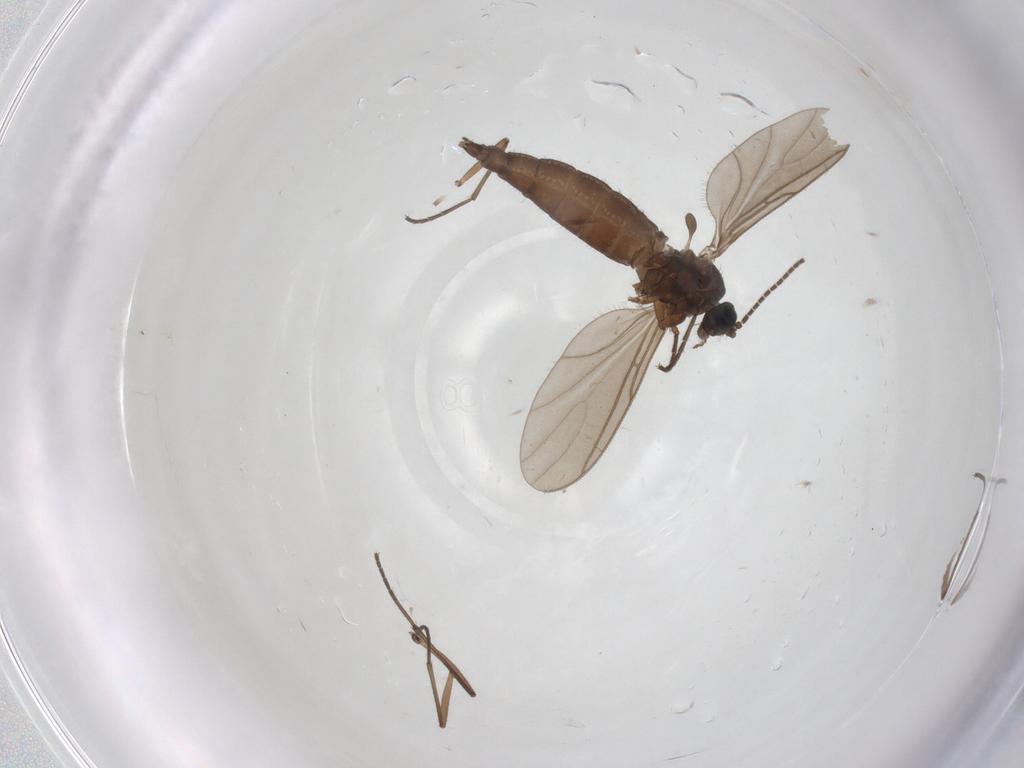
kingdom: Animalia
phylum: Arthropoda
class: Insecta
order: Diptera
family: Sciaridae
